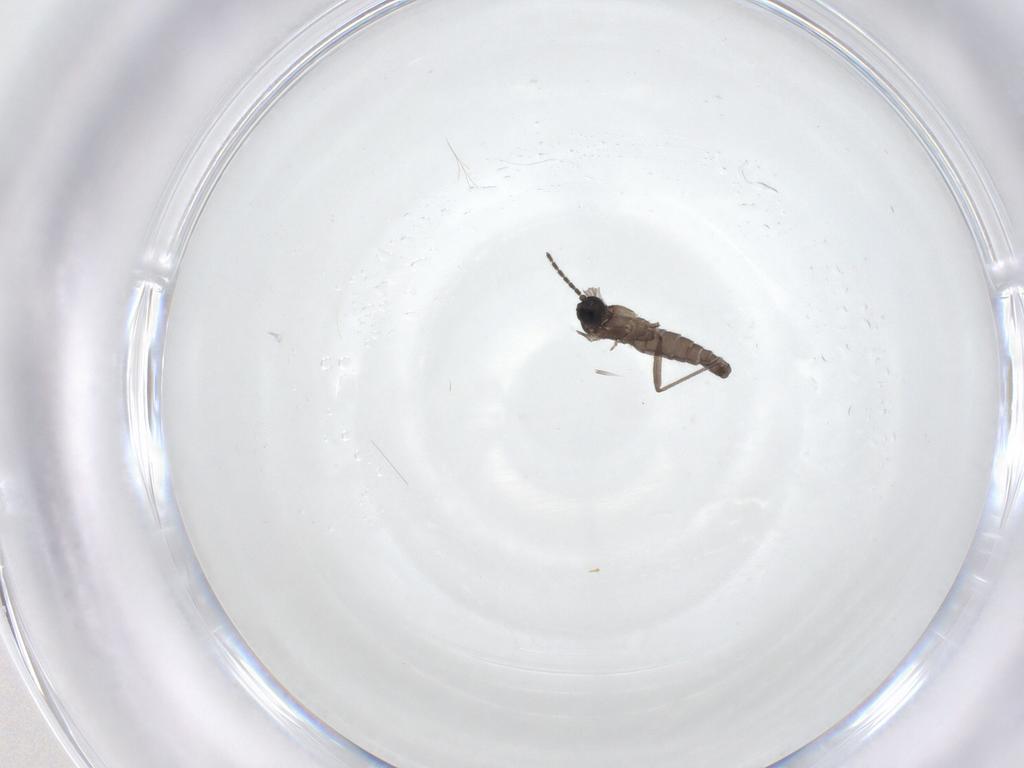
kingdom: Animalia
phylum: Arthropoda
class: Insecta
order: Diptera
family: Sciaridae
